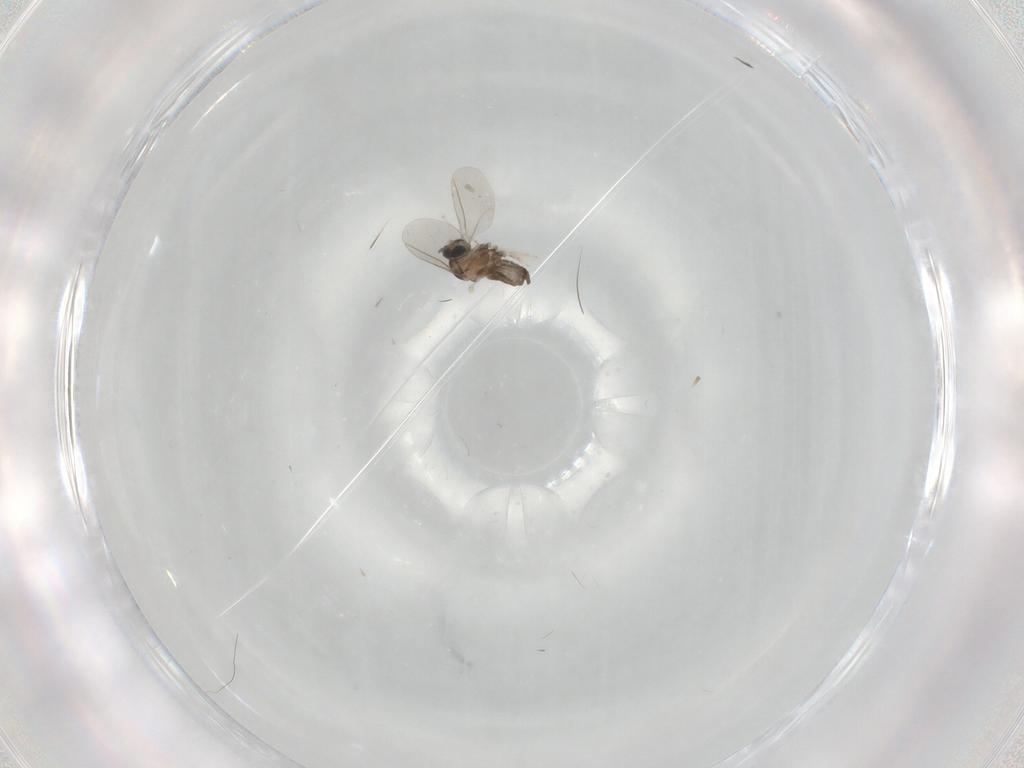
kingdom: Animalia
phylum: Arthropoda
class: Insecta
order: Diptera
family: Cecidomyiidae
